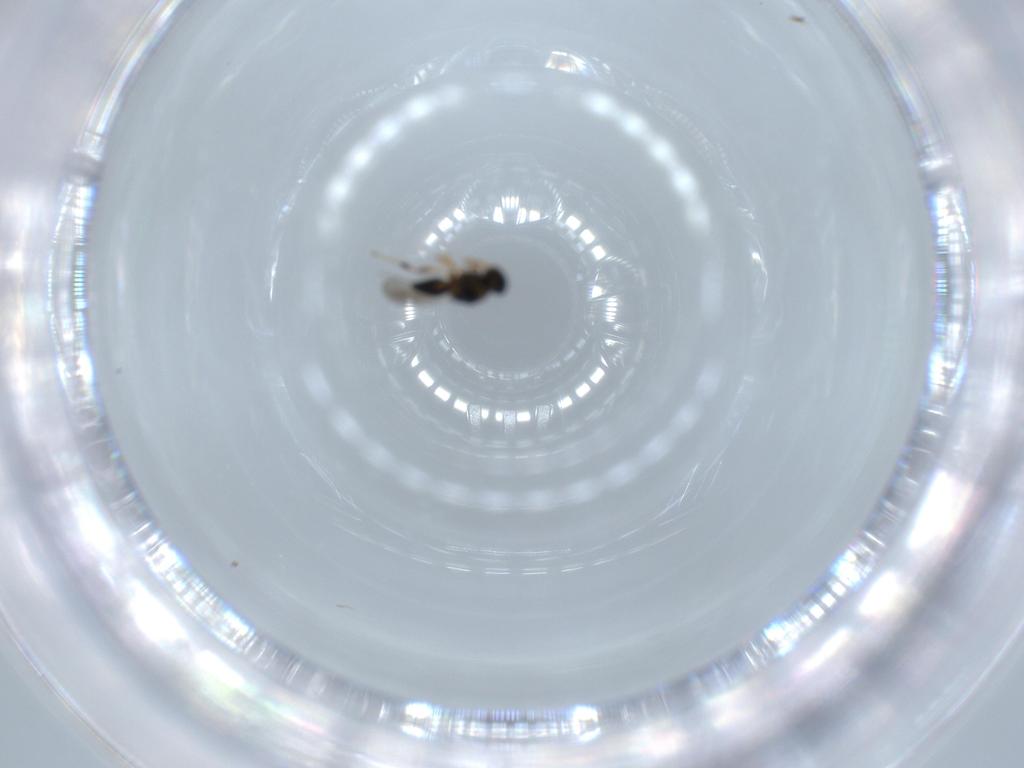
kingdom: Animalia
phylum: Arthropoda
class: Insecta
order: Hymenoptera
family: Platygastridae
